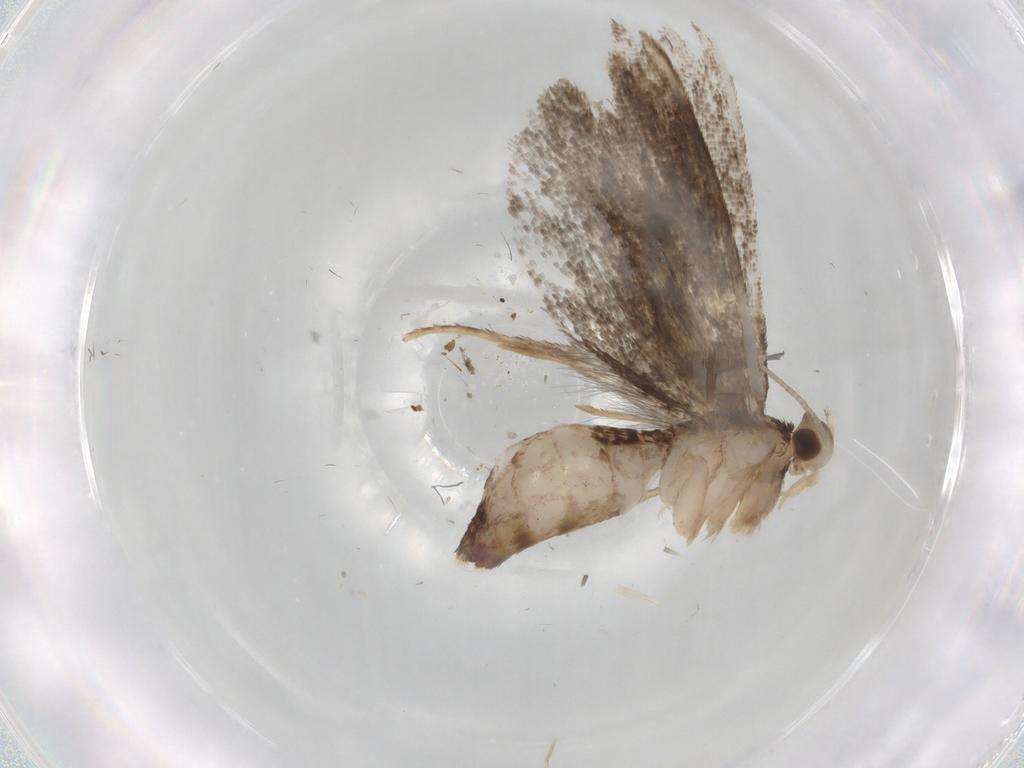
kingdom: Animalia
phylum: Arthropoda
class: Insecta
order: Lepidoptera
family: Dryadaulidae
